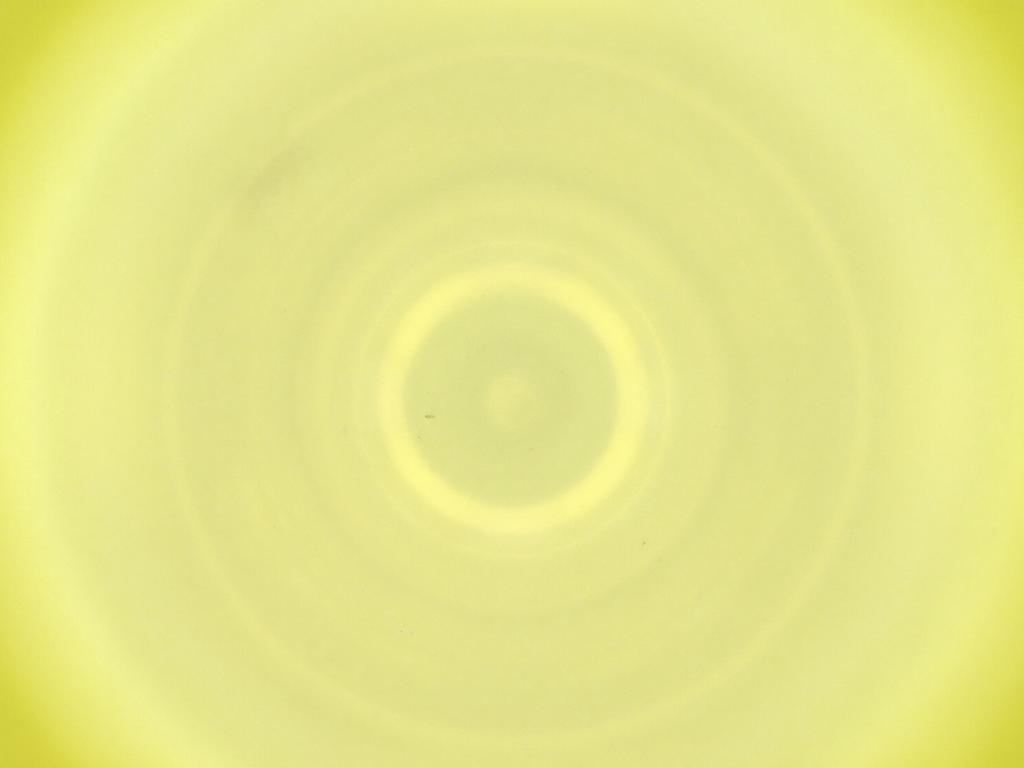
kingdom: Animalia
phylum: Arthropoda
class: Insecta
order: Diptera
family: Cecidomyiidae
